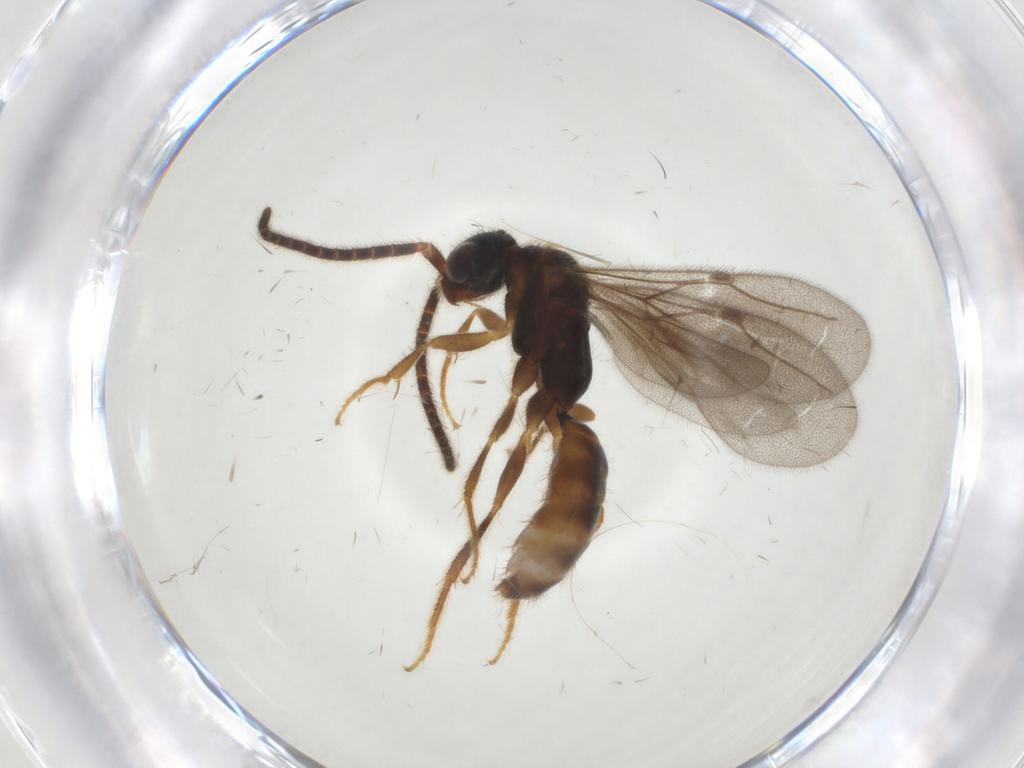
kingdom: Animalia
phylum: Arthropoda
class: Insecta
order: Hymenoptera
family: Bethylidae
